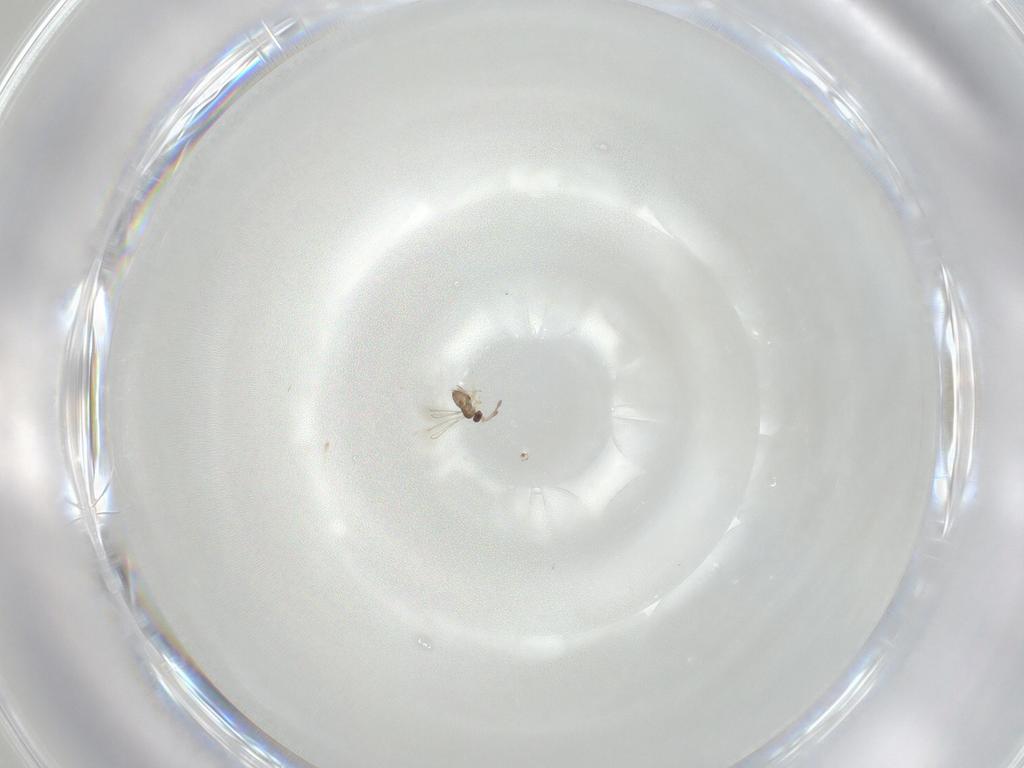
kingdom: Animalia
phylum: Arthropoda
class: Insecta
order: Hymenoptera
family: Mymaridae
